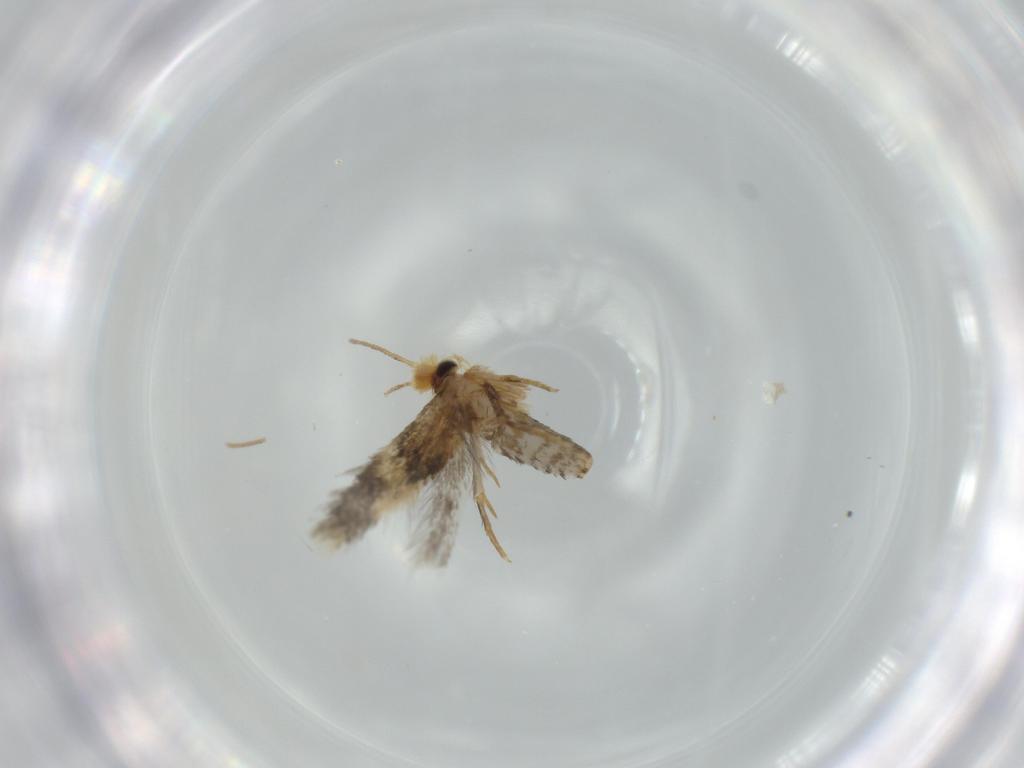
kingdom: Animalia
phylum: Arthropoda
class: Insecta
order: Lepidoptera
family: Nepticulidae
